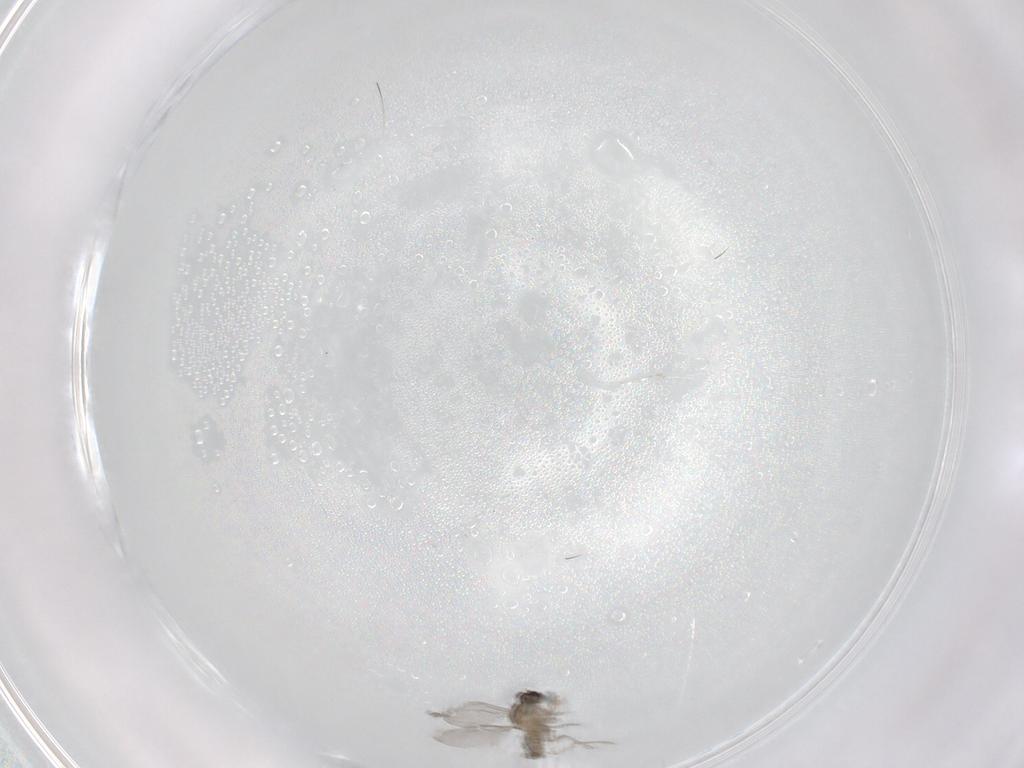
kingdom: Animalia
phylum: Arthropoda
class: Insecta
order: Diptera
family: Cecidomyiidae
